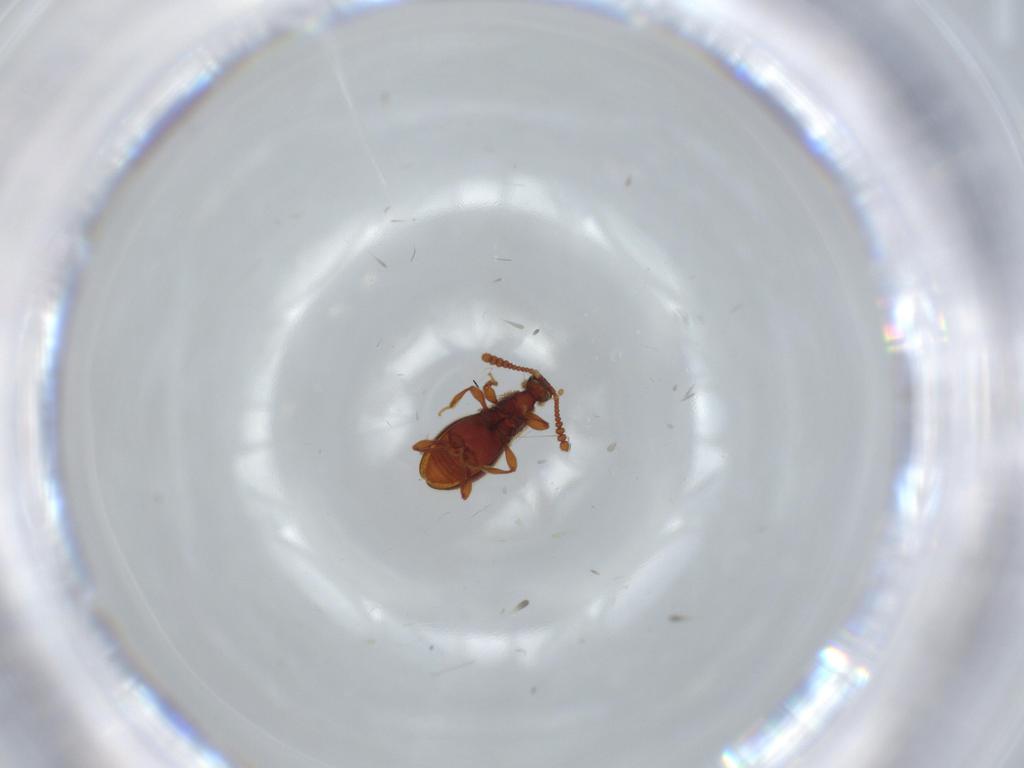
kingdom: Animalia
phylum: Arthropoda
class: Insecta
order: Coleoptera
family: Staphylinidae
